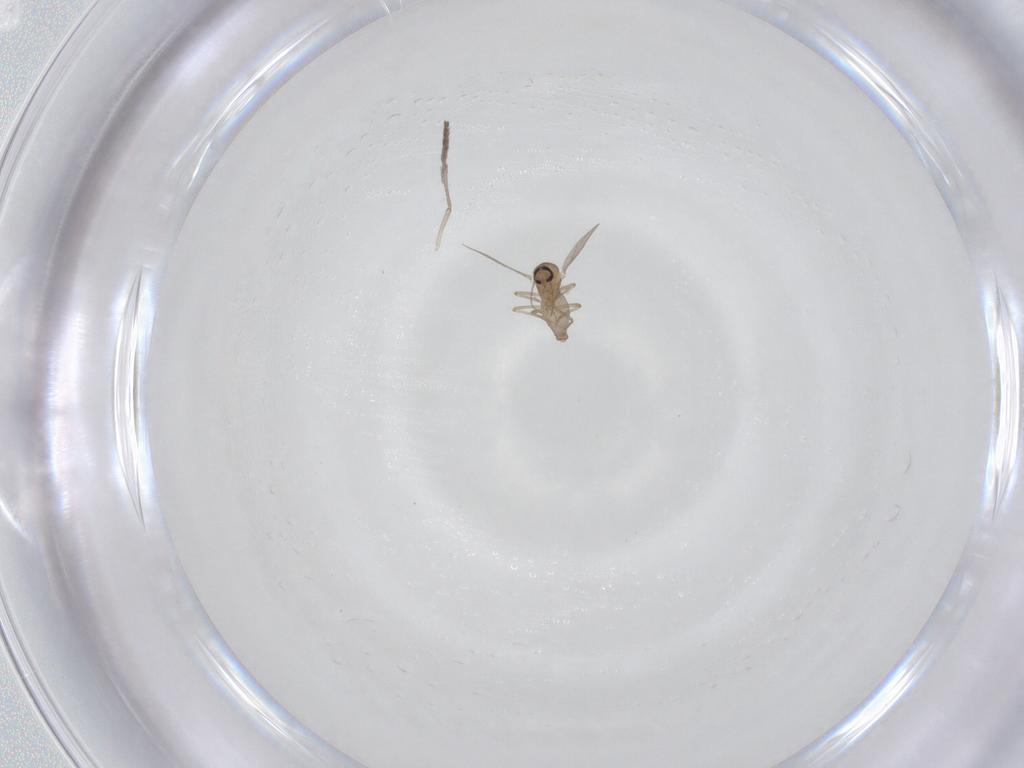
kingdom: Animalia
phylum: Arthropoda
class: Insecta
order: Diptera
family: Ceratopogonidae
